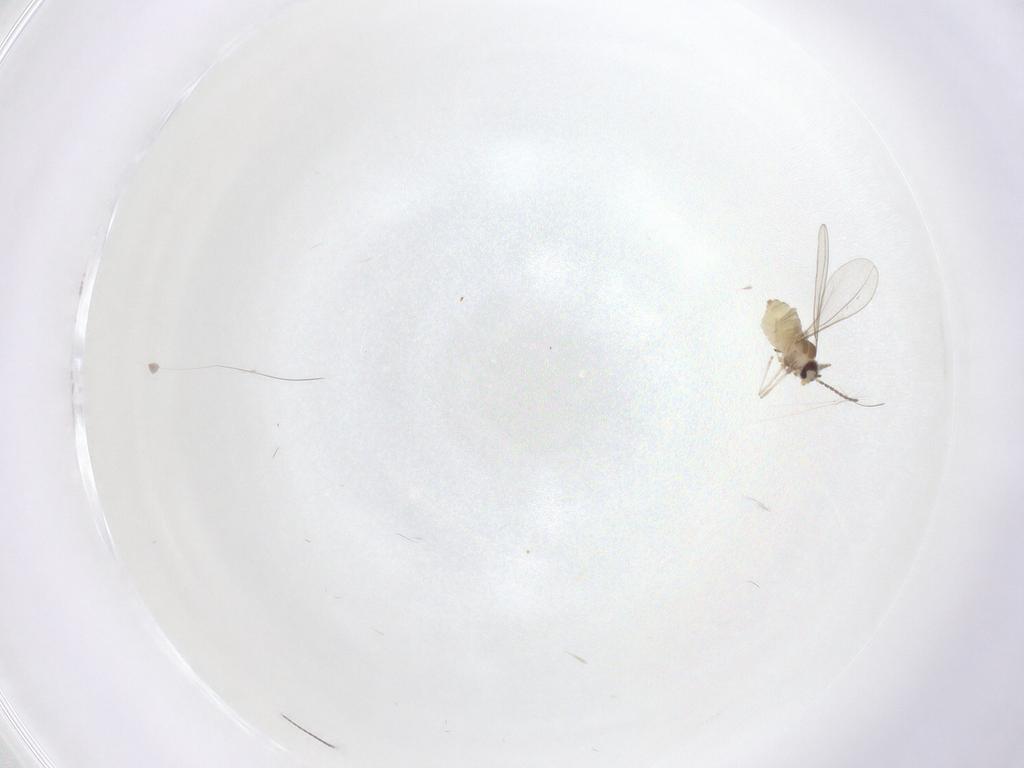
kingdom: Animalia
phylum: Arthropoda
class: Insecta
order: Diptera
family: Cecidomyiidae
